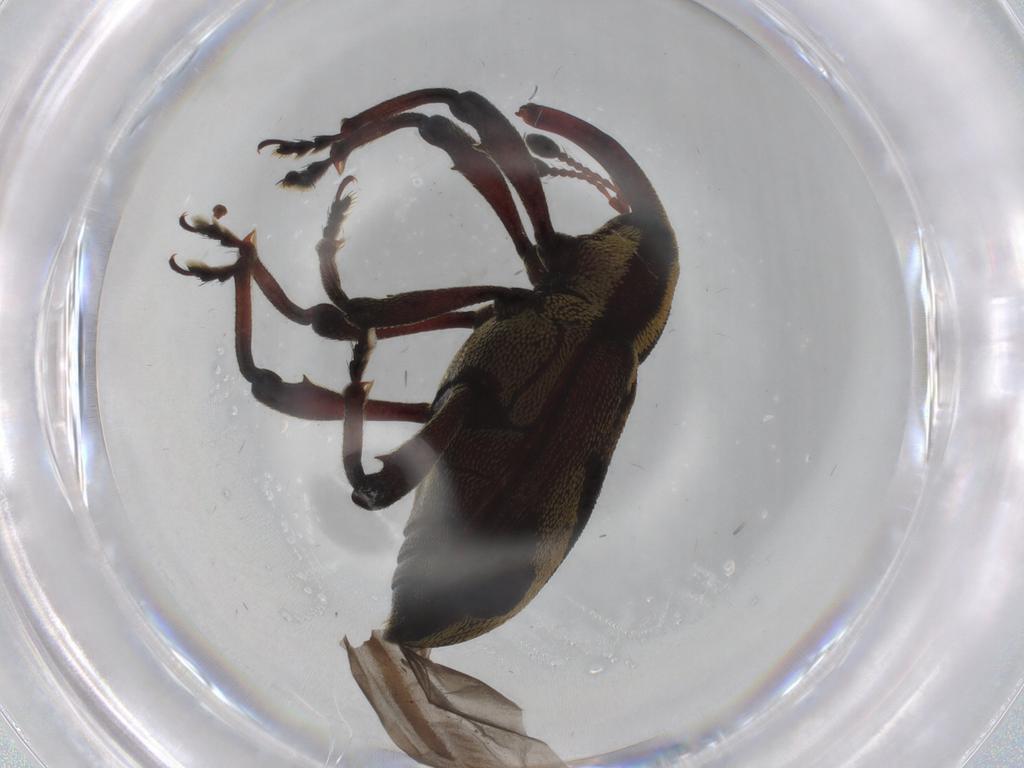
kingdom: Animalia
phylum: Arthropoda
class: Insecta
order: Coleoptera
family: Curculionidae
